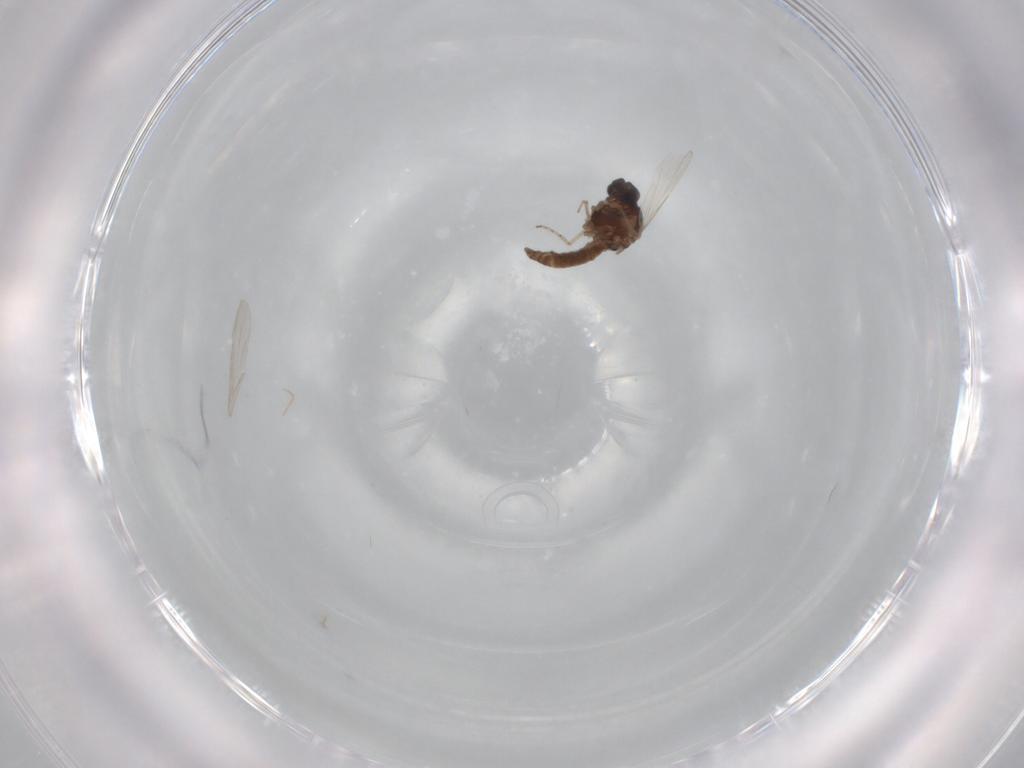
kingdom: Animalia
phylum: Arthropoda
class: Insecta
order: Diptera
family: Ceratopogonidae
